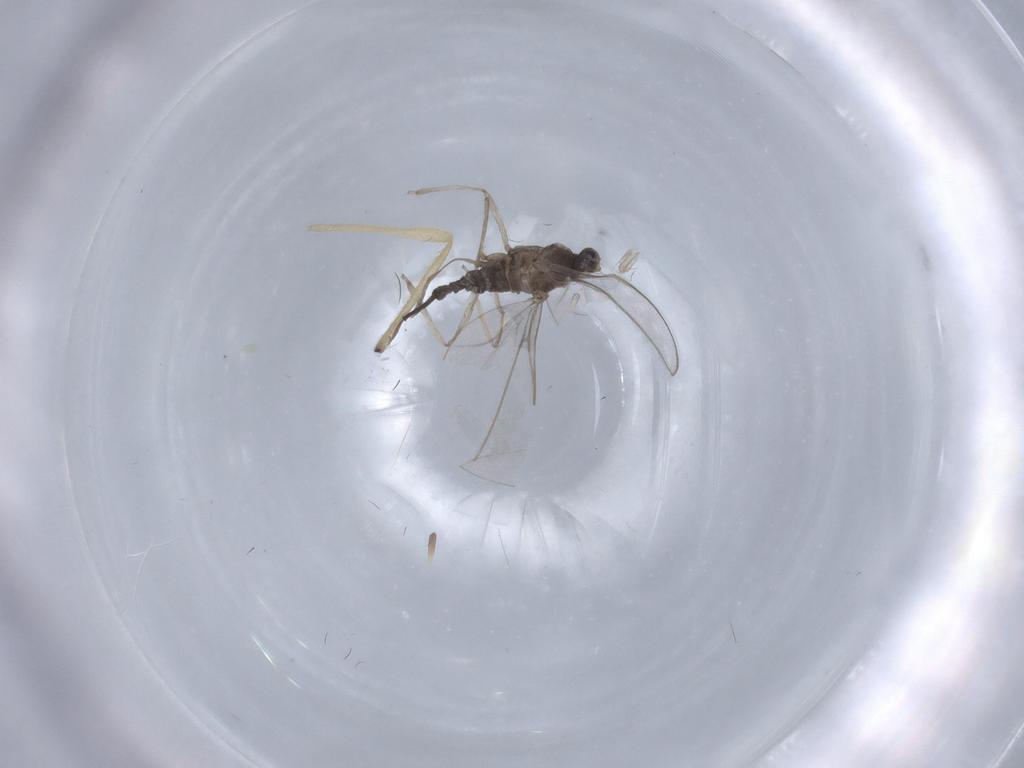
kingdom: Animalia
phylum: Arthropoda
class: Insecta
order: Diptera
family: Cecidomyiidae
